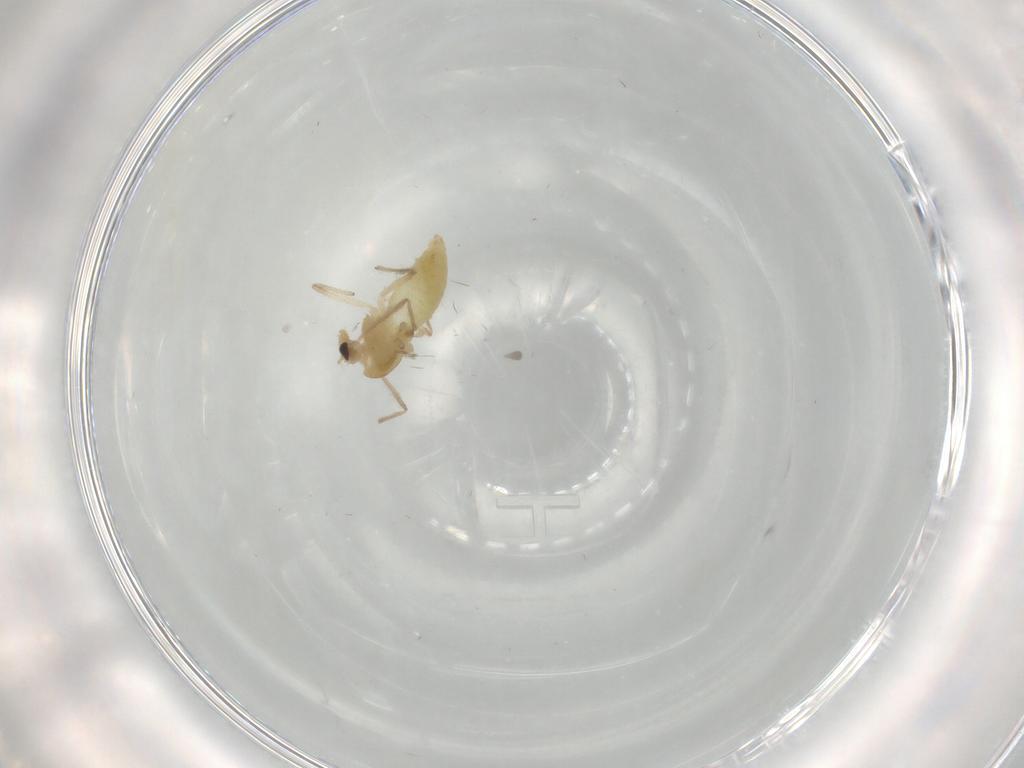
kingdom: Animalia
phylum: Arthropoda
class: Insecta
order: Diptera
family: Chironomidae
